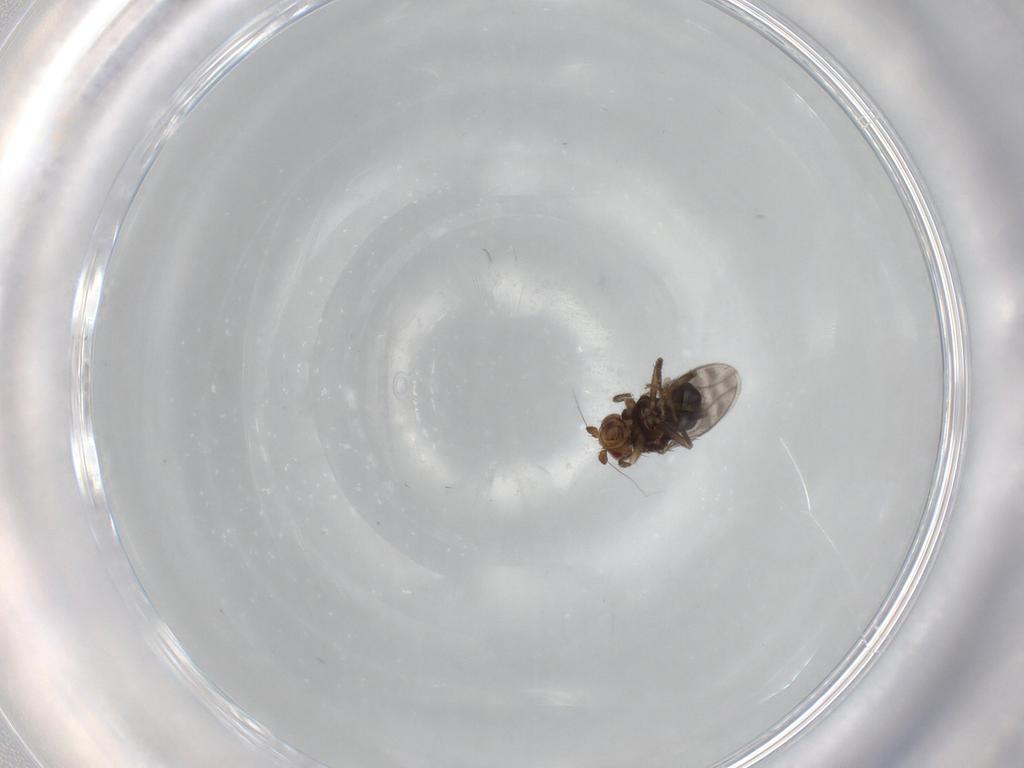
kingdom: Animalia
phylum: Arthropoda
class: Insecta
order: Diptera
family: Sphaeroceridae
